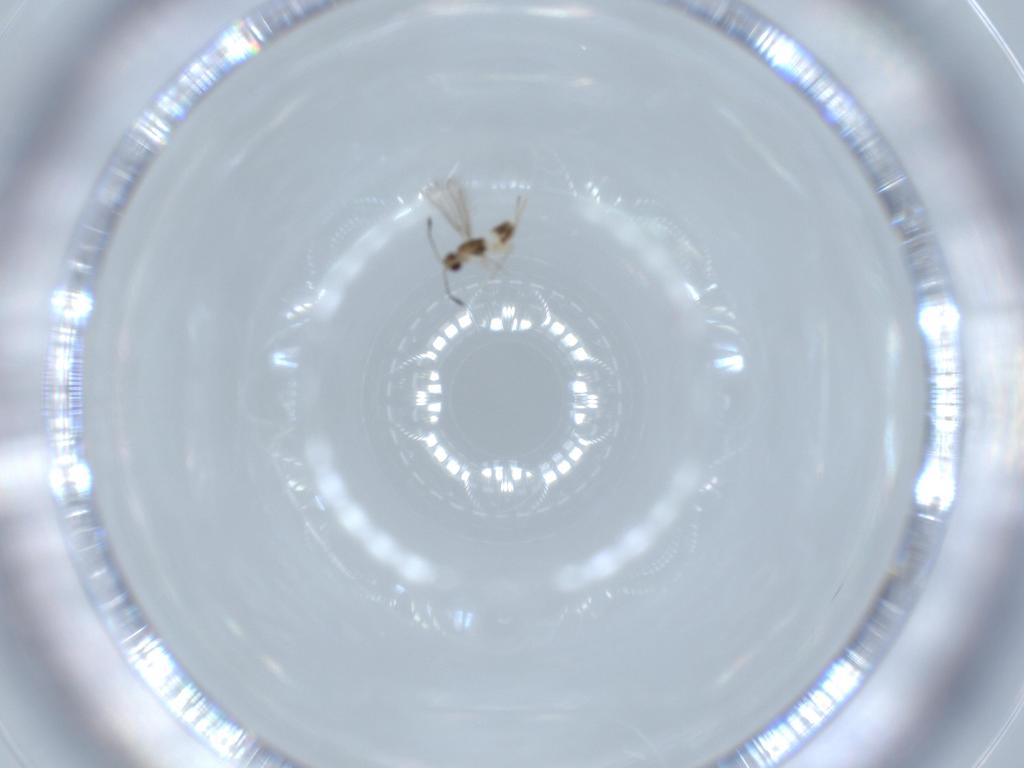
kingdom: Animalia
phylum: Arthropoda
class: Insecta
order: Hymenoptera
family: Mymaridae
